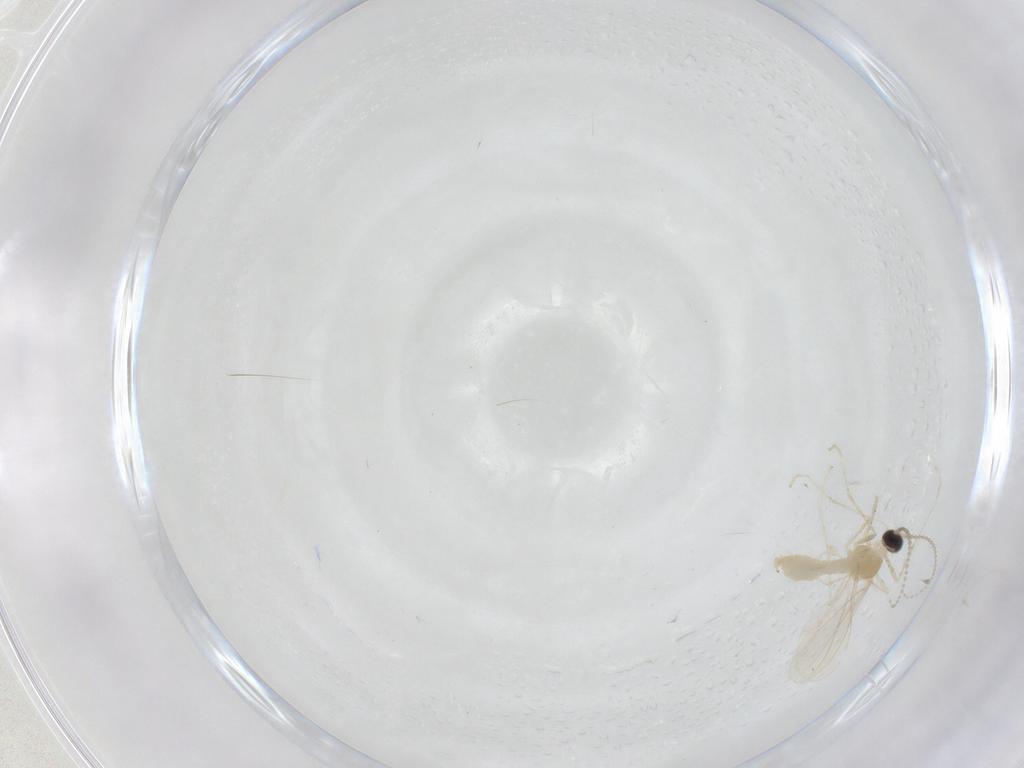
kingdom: Animalia
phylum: Arthropoda
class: Insecta
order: Diptera
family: Cecidomyiidae
